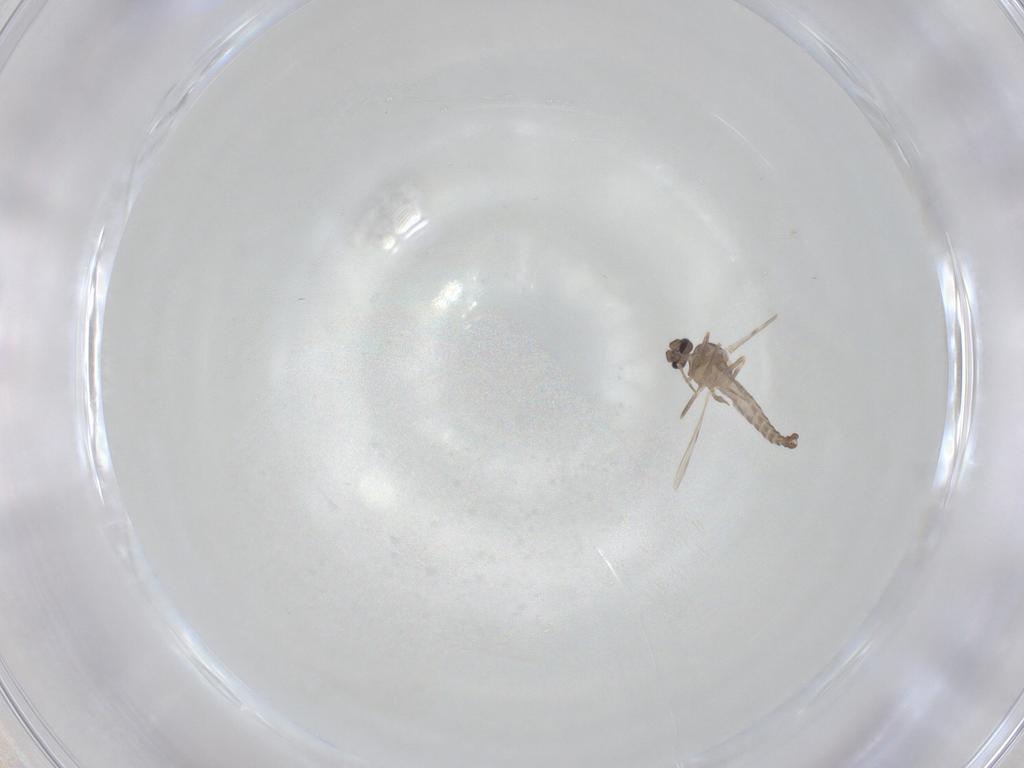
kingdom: Animalia
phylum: Arthropoda
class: Insecta
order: Diptera
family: Ceratopogonidae
